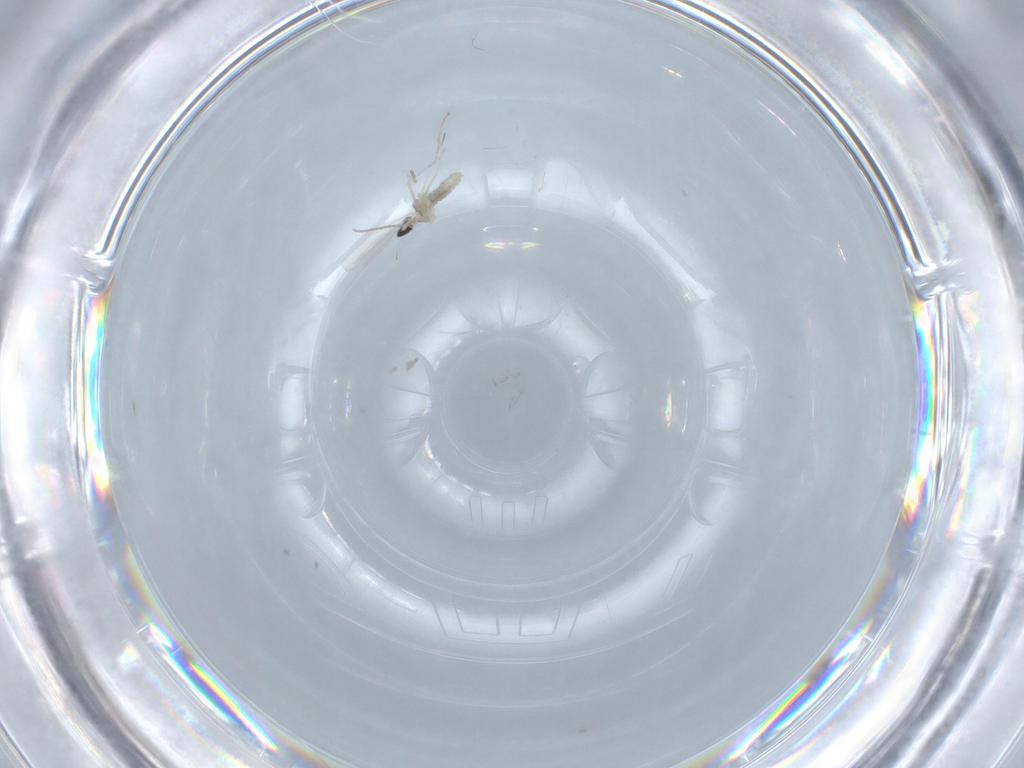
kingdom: Animalia
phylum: Arthropoda
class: Insecta
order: Diptera
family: Cecidomyiidae
